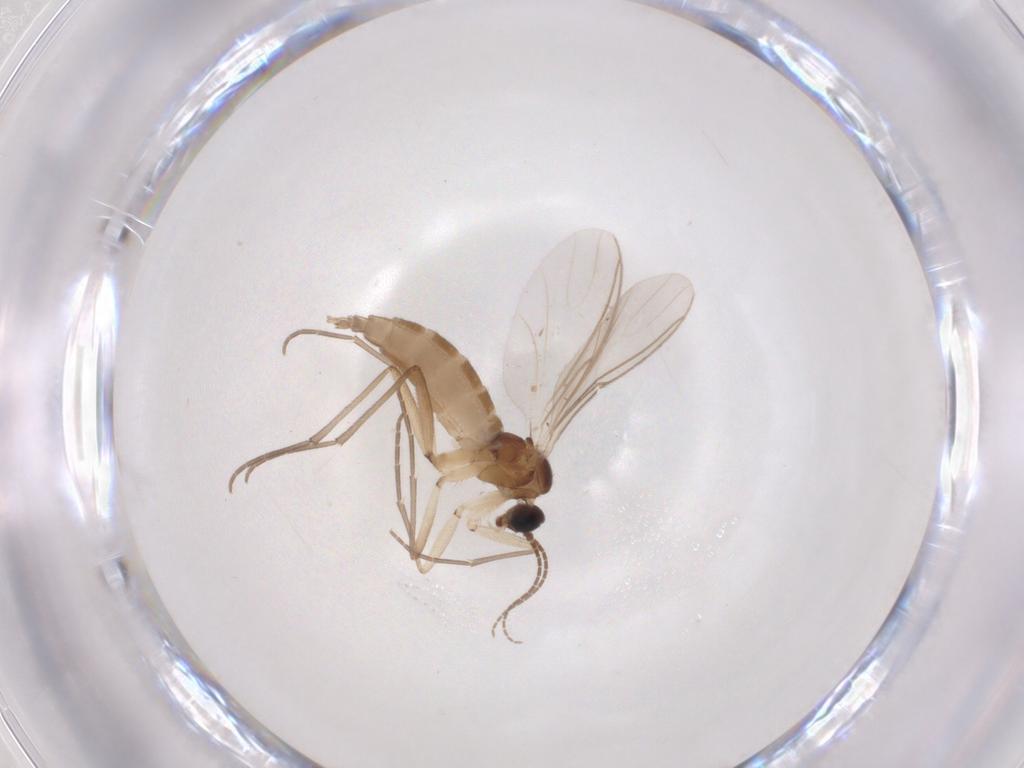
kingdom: Animalia
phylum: Arthropoda
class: Insecta
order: Diptera
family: Sciaridae
